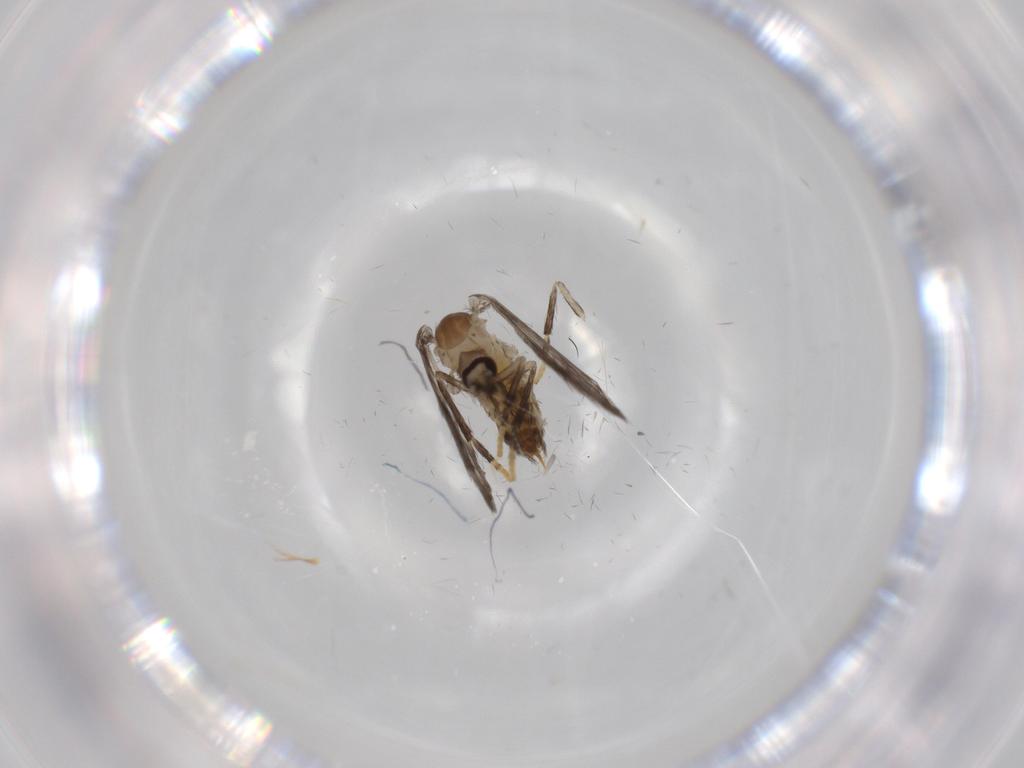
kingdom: Animalia
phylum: Arthropoda
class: Insecta
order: Diptera
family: Psychodidae
